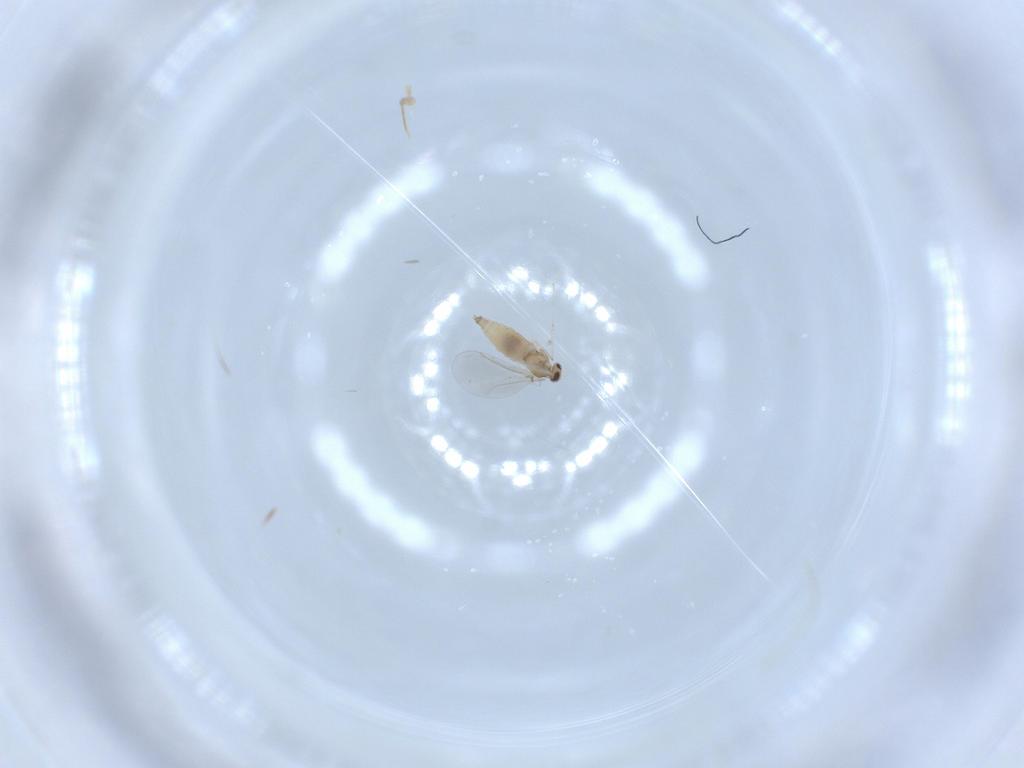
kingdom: Animalia
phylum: Arthropoda
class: Insecta
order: Diptera
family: Cecidomyiidae
